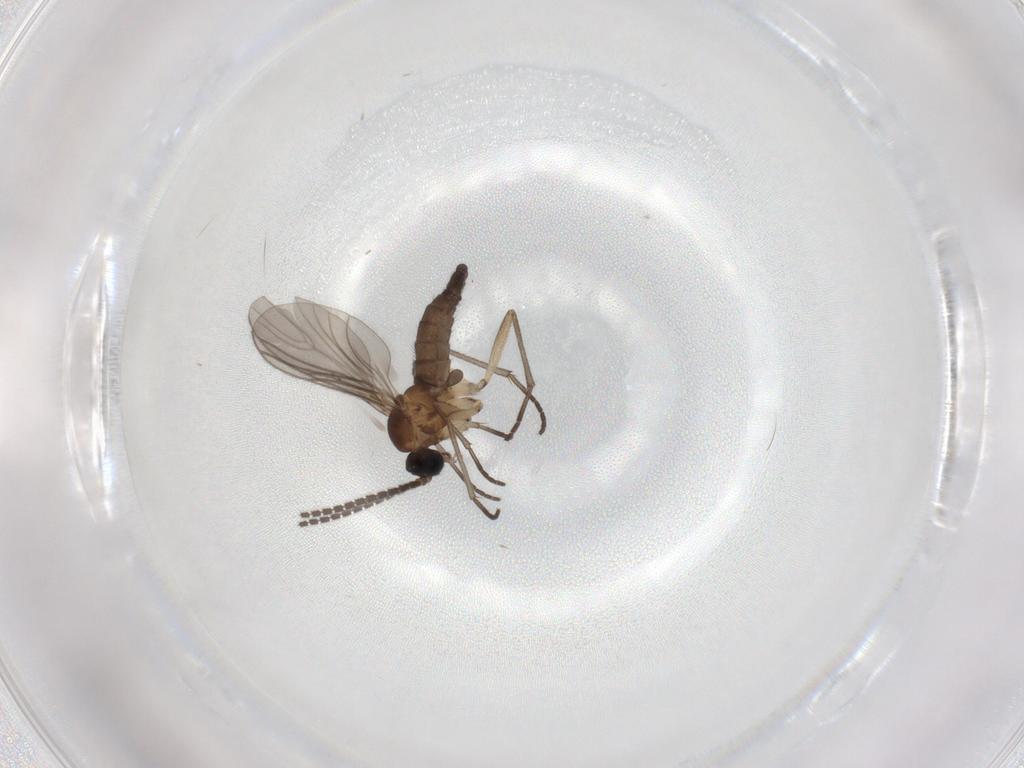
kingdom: Animalia
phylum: Arthropoda
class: Insecta
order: Diptera
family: Sciaridae
